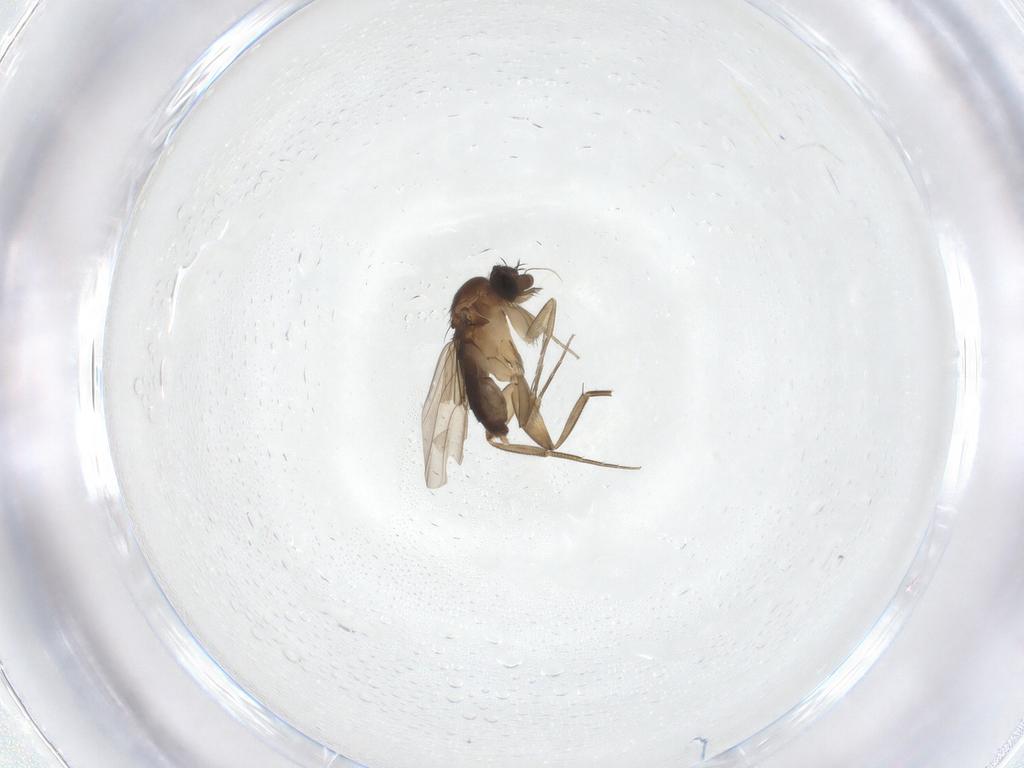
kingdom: Animalia
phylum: Arthropoda
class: Insecta
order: Diptera
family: Phoridae
